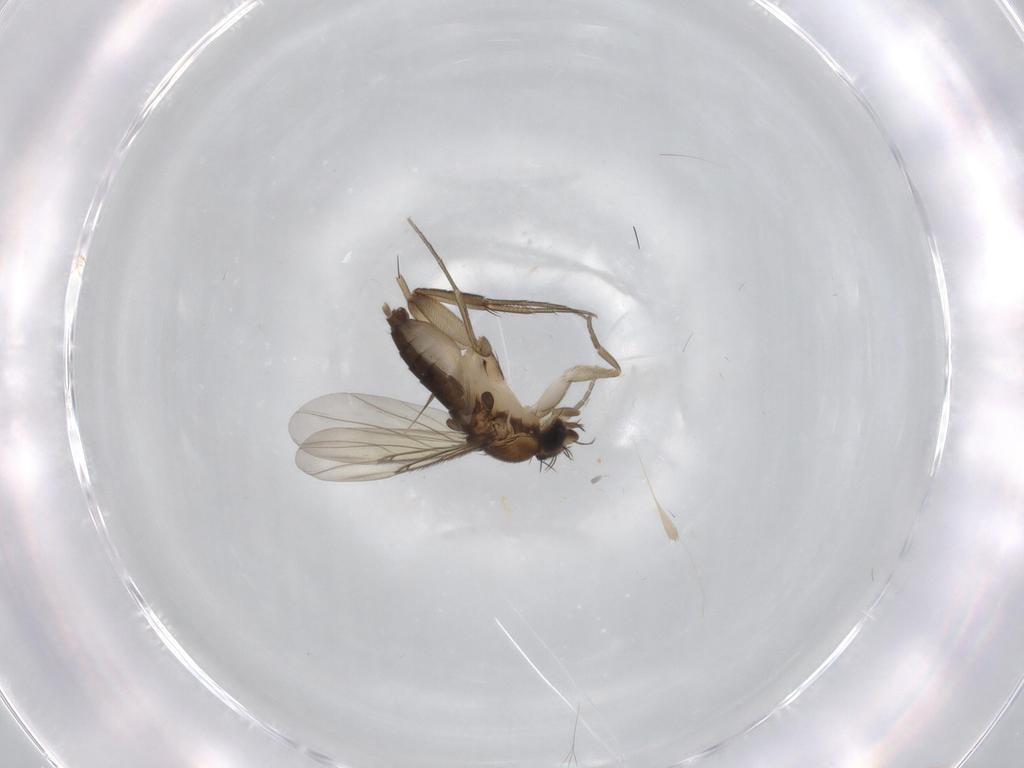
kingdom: Animalia
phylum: Arthropoda
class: Insecta
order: Diptera
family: Phoridae
